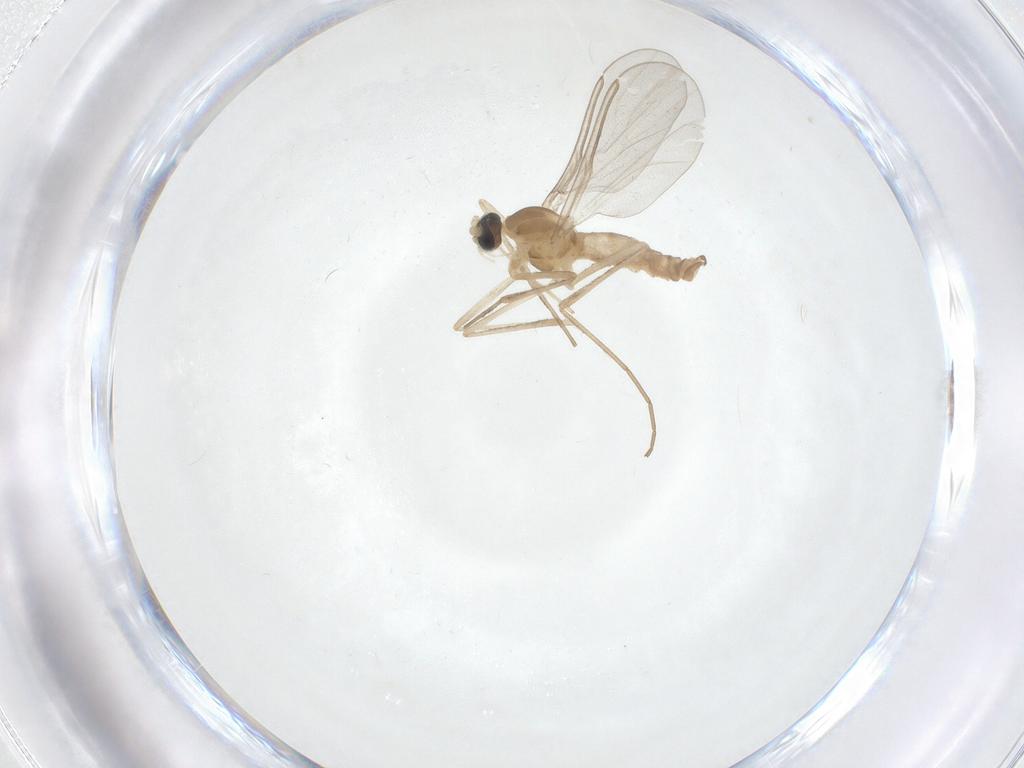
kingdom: Animalia
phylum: Arthropoda
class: Insecta
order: Diptera
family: Cecidomyiidae
